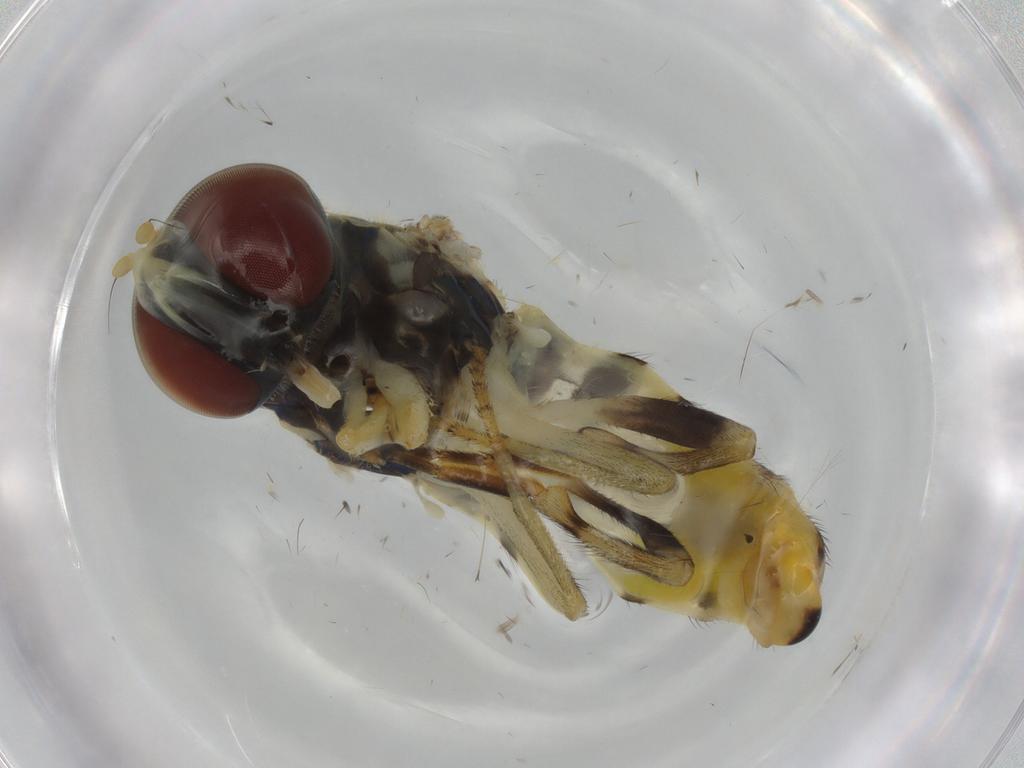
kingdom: Animalia
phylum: Arthropoda
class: Insecta
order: Diptera
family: Syrphidae
